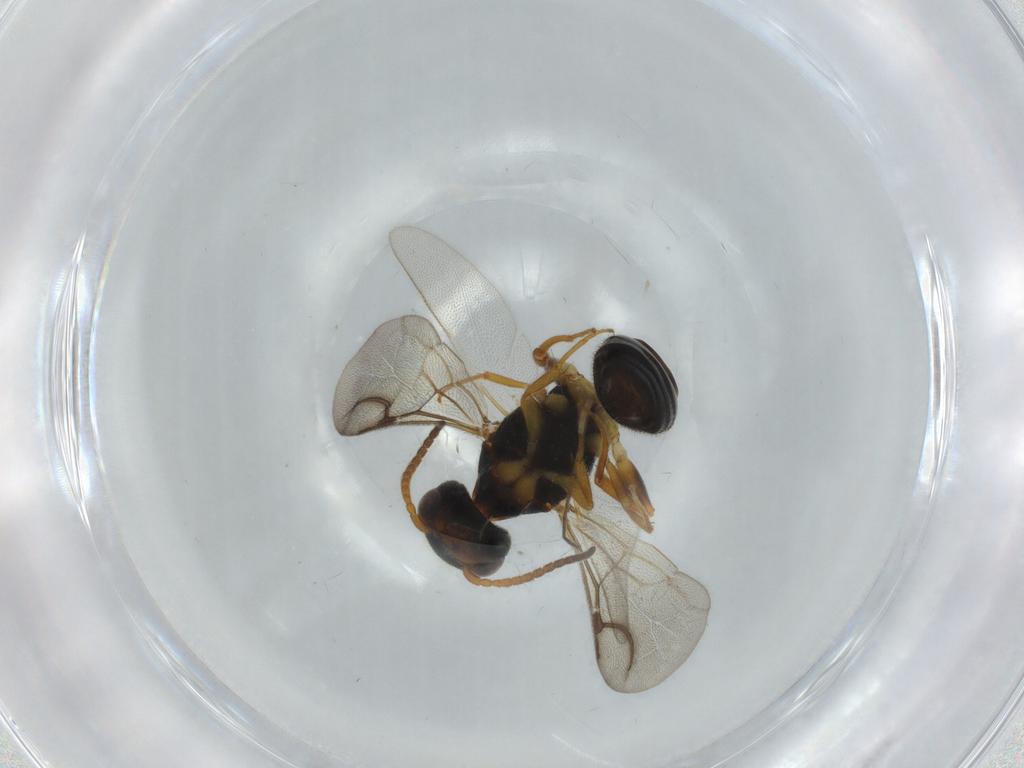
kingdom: Animalia
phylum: Arthropoda
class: Insecta
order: Hymenoptera
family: Bethylidae
